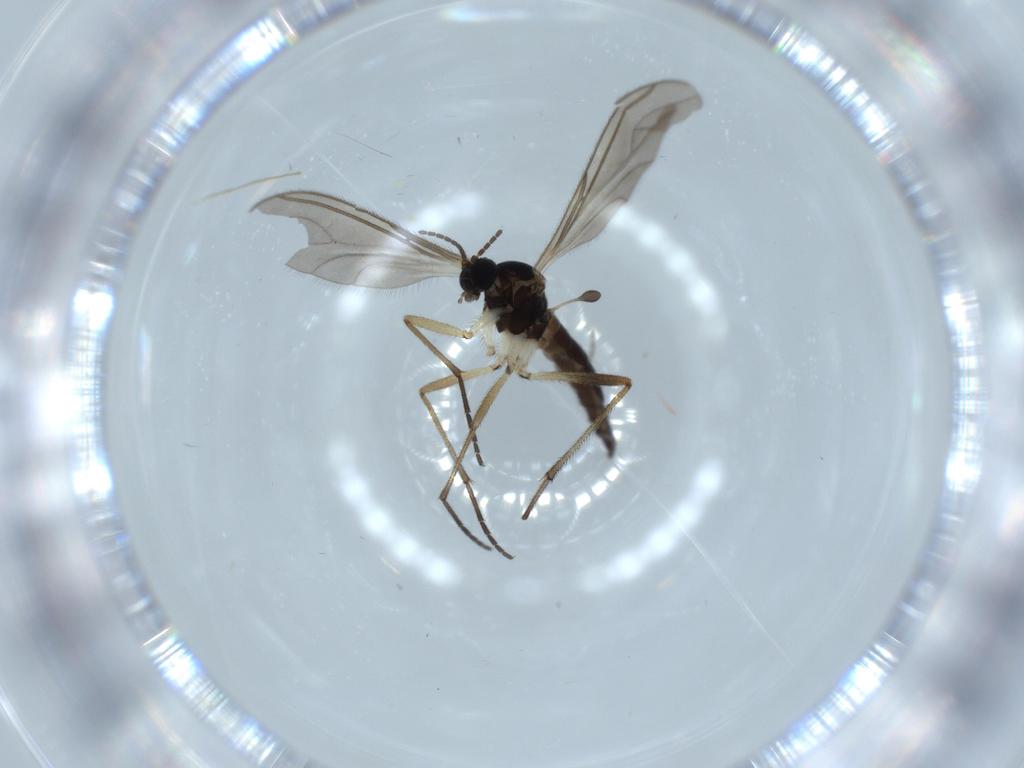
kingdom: Animalia
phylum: Arthropoda
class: Insecta
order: Diptera
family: Sciaridae
